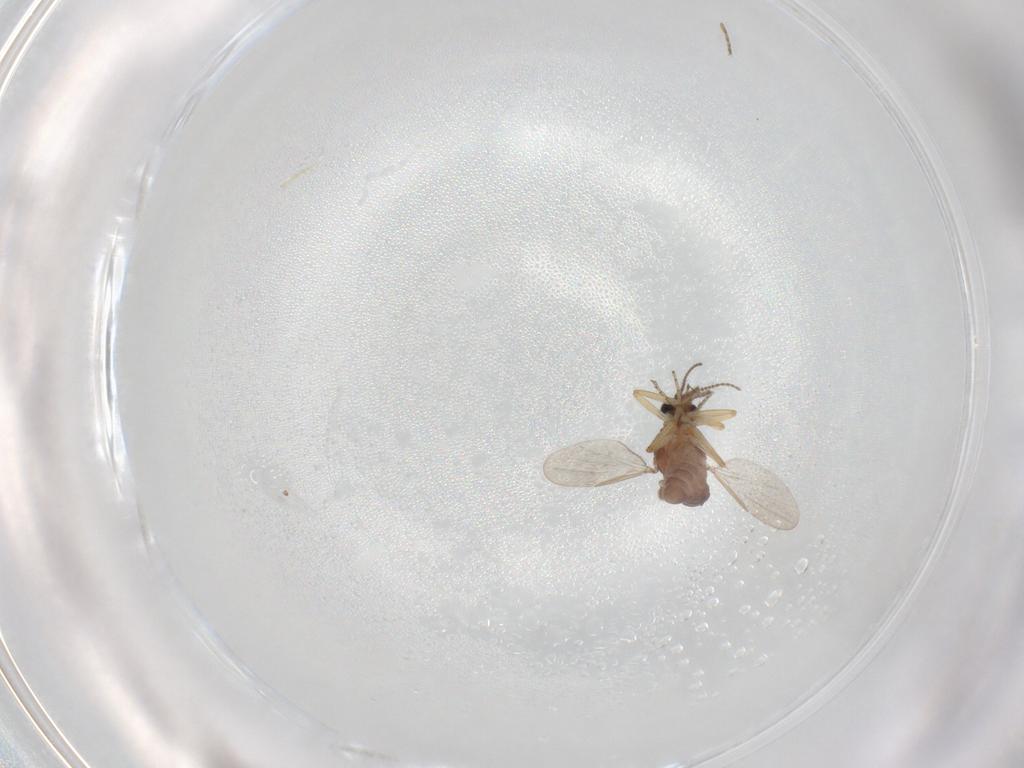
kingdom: Animalia
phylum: Arthropoda
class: Insecta
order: Diptera
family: Ceratopogonidae
